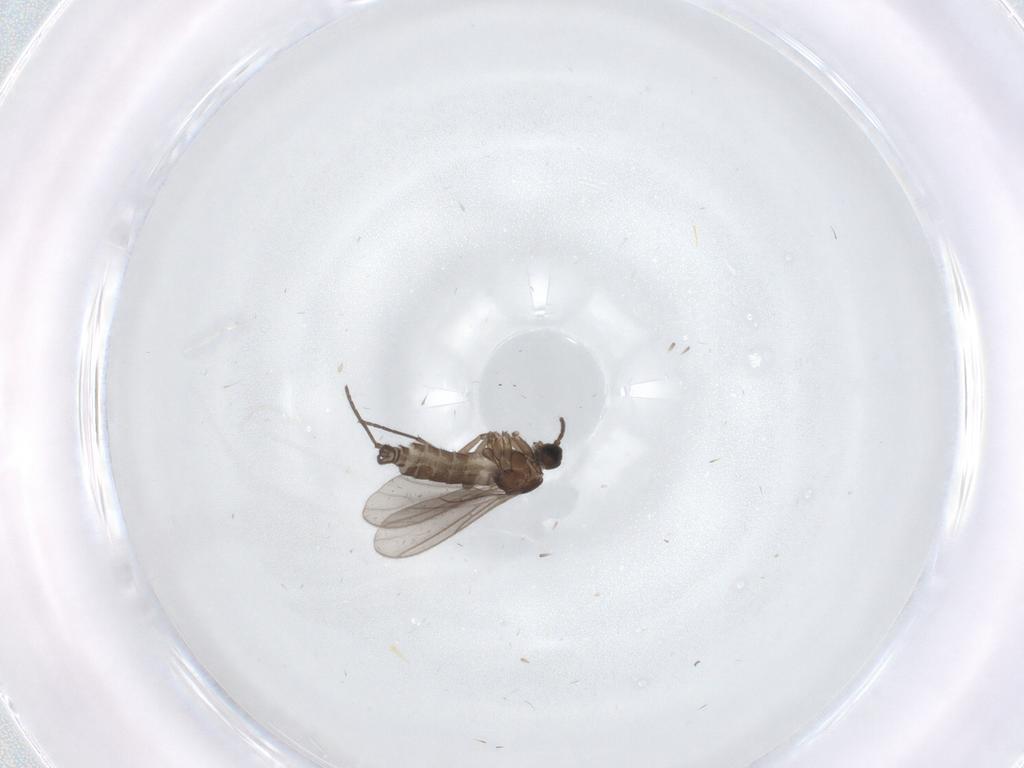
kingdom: Animalia
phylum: Arthropoda
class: Insecta
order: Diptera
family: Sciaridae
